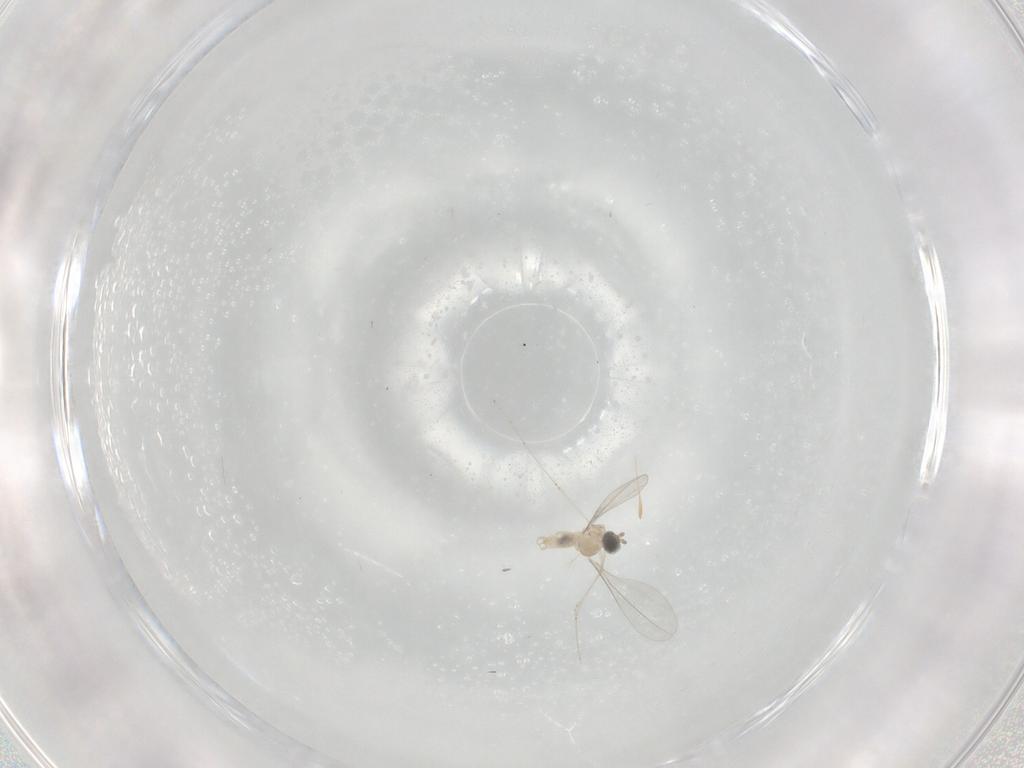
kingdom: Animalia
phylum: Arthropoda
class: Insecta
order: Diptera
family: Cecidomyiidae
